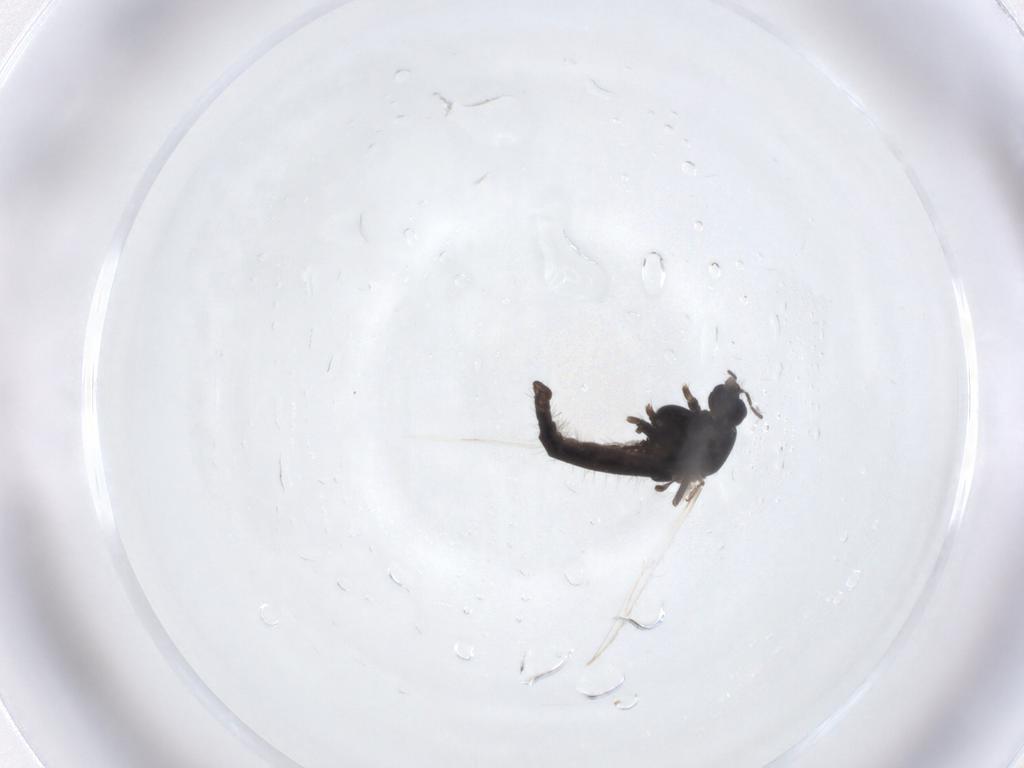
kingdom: Animalia
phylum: Arthropoda
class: Insecta
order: Diptera
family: Chironomidae
